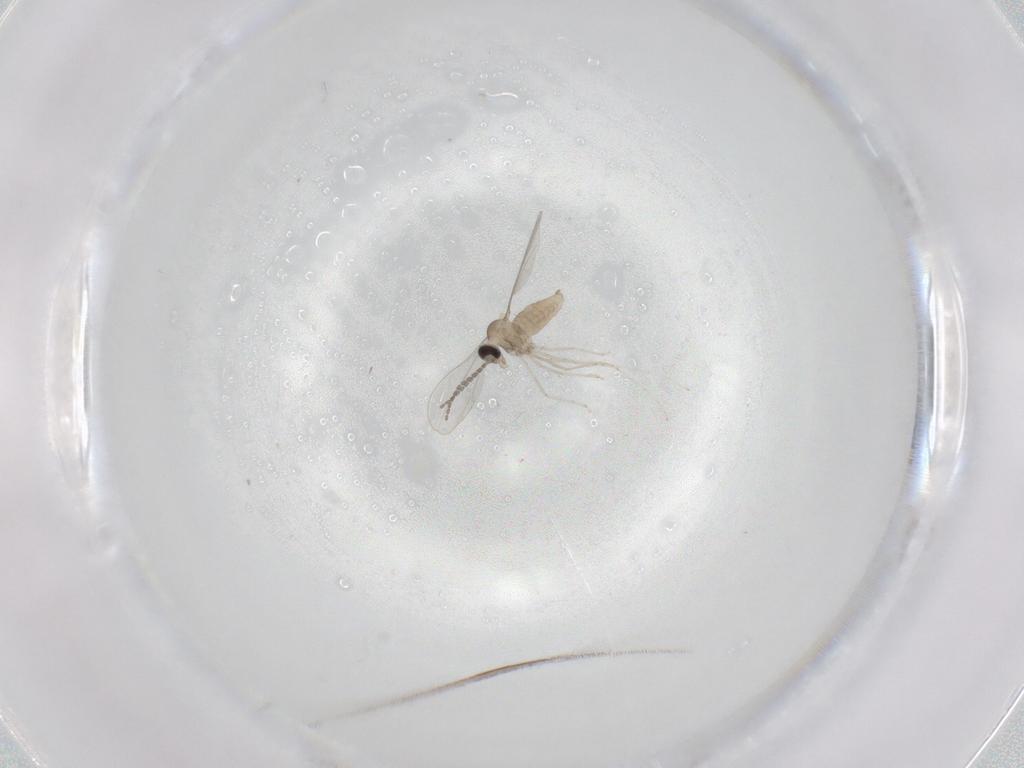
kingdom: Animalia
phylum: Arthropoda
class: Insecta
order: Diptera
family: Cecidomyiidae
